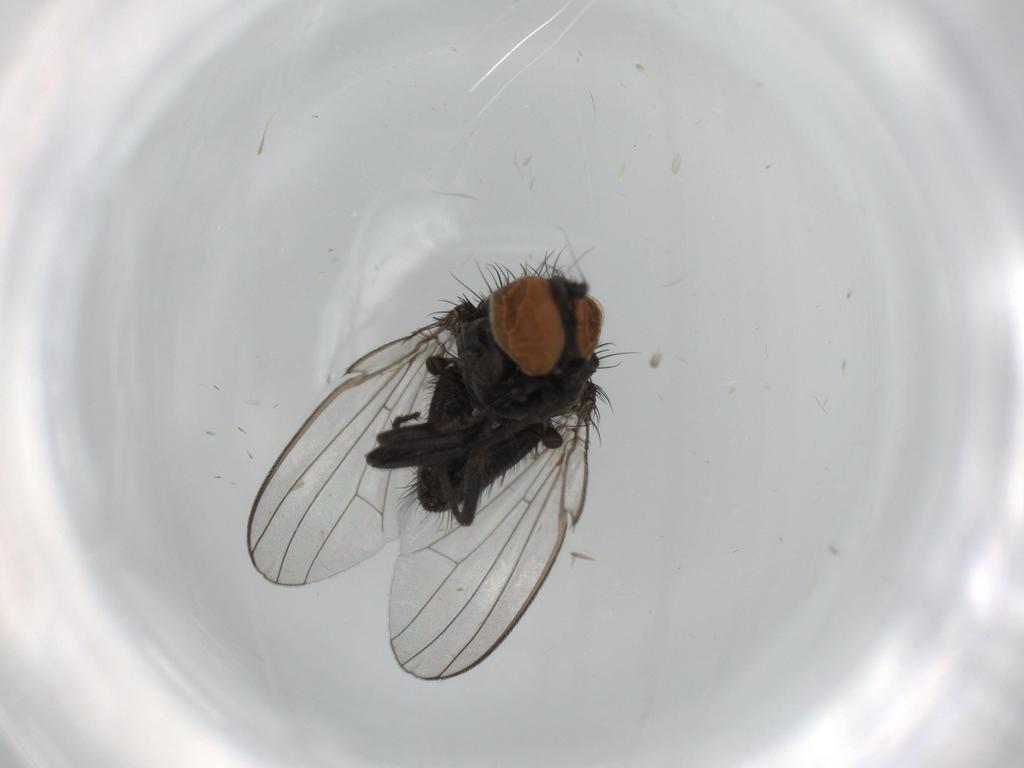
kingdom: Animalia
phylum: Arthropoda
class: Insecta
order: Diptera
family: Milichiidae
